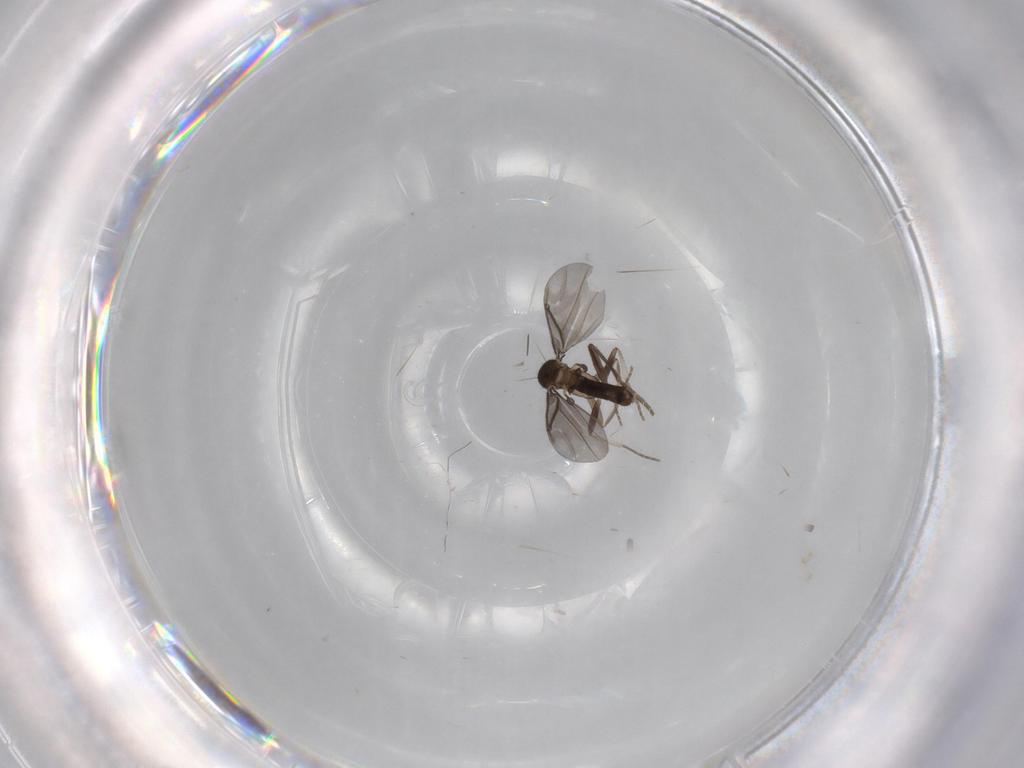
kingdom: Animalia
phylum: Arthropoda
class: Insecta
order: Diptera
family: Phoridae
